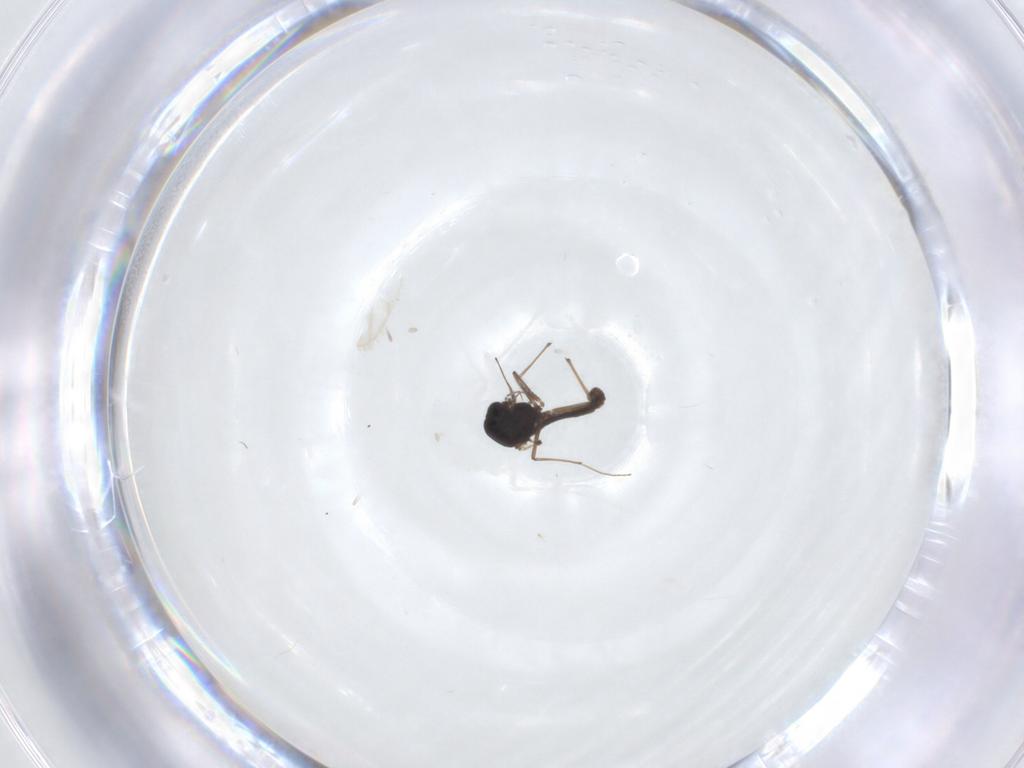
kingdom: Animalia
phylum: Arthropoda
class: Insecta
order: Diptera
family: Chironomidae
